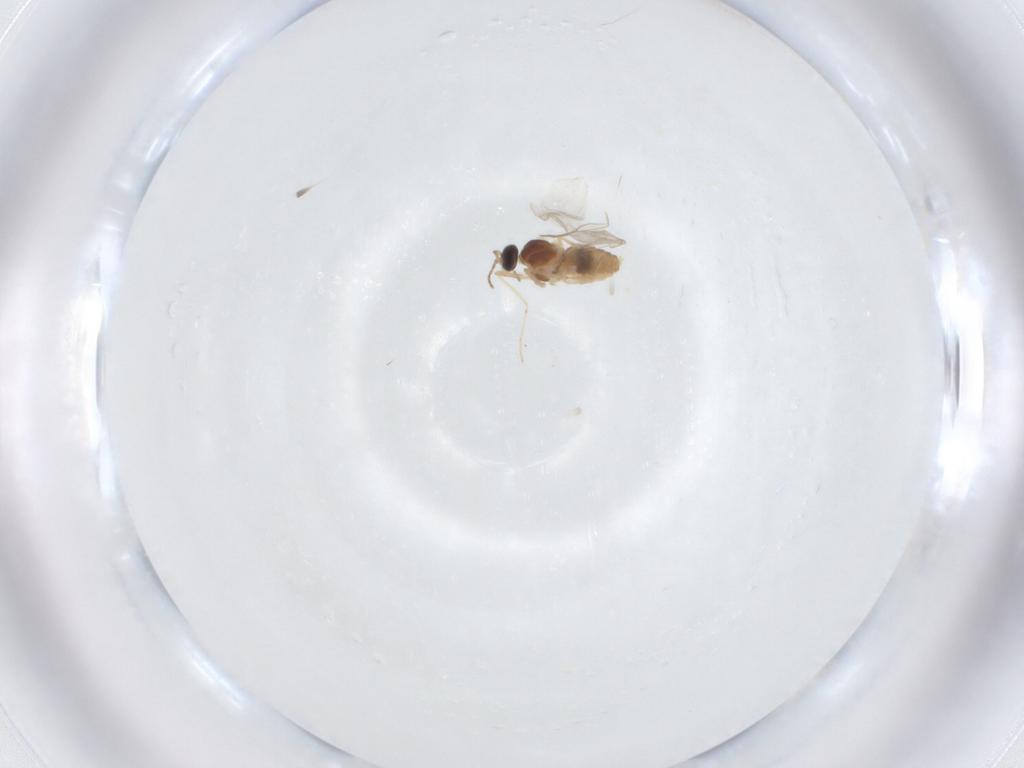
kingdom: Animalia
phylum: Arthropoda
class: Insecta
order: Diptera
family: Cecidomyiidae
